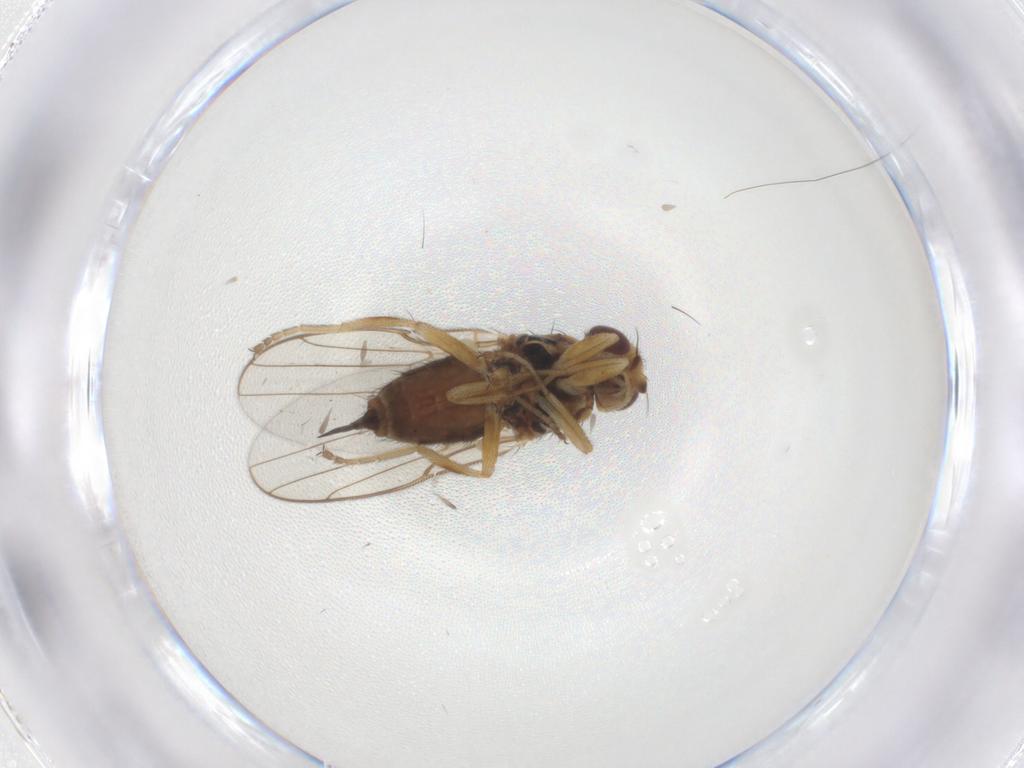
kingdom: Animalia
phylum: Arthropoda
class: Insecta
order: Diptera
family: Chloropidae
